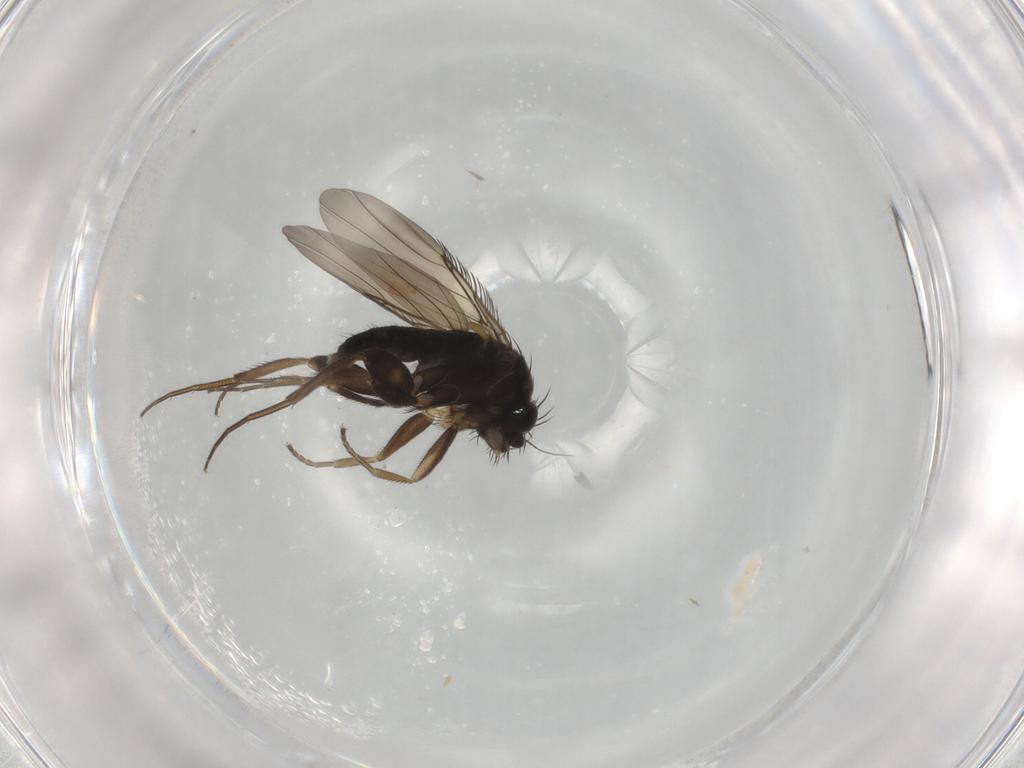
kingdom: Animalia
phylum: Arthropoda
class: Insecta
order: Diptera
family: Phoridae
